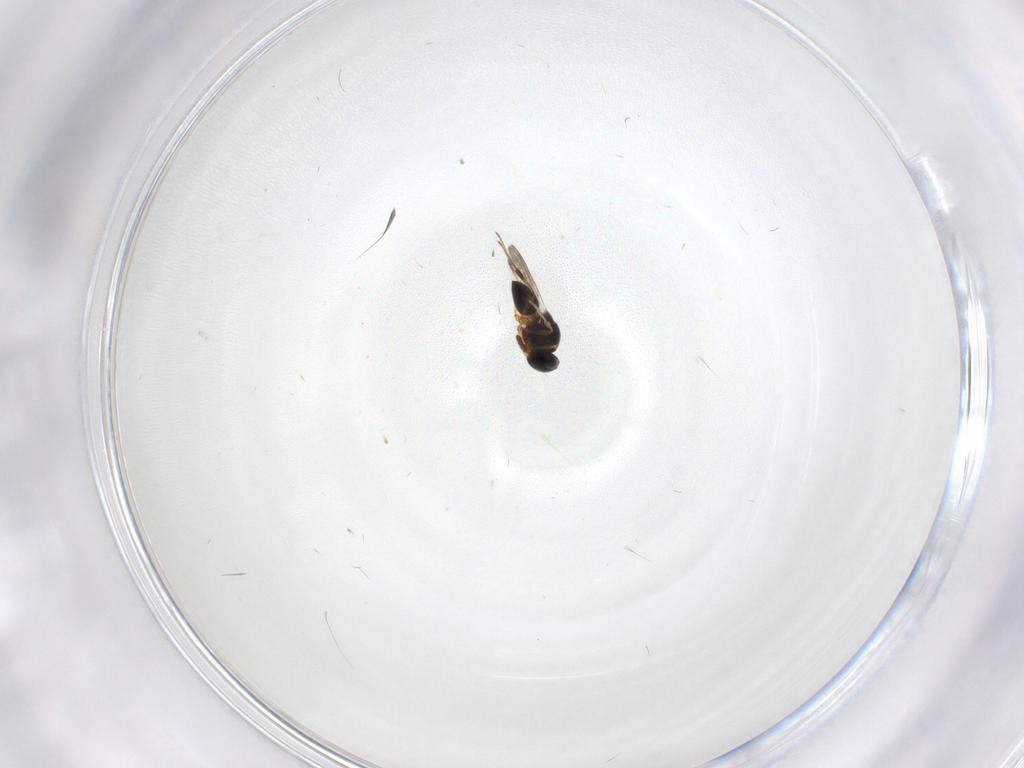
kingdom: Animalia
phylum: Arthropoda
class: Insecta
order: Hymenoptera
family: Platygastridae
